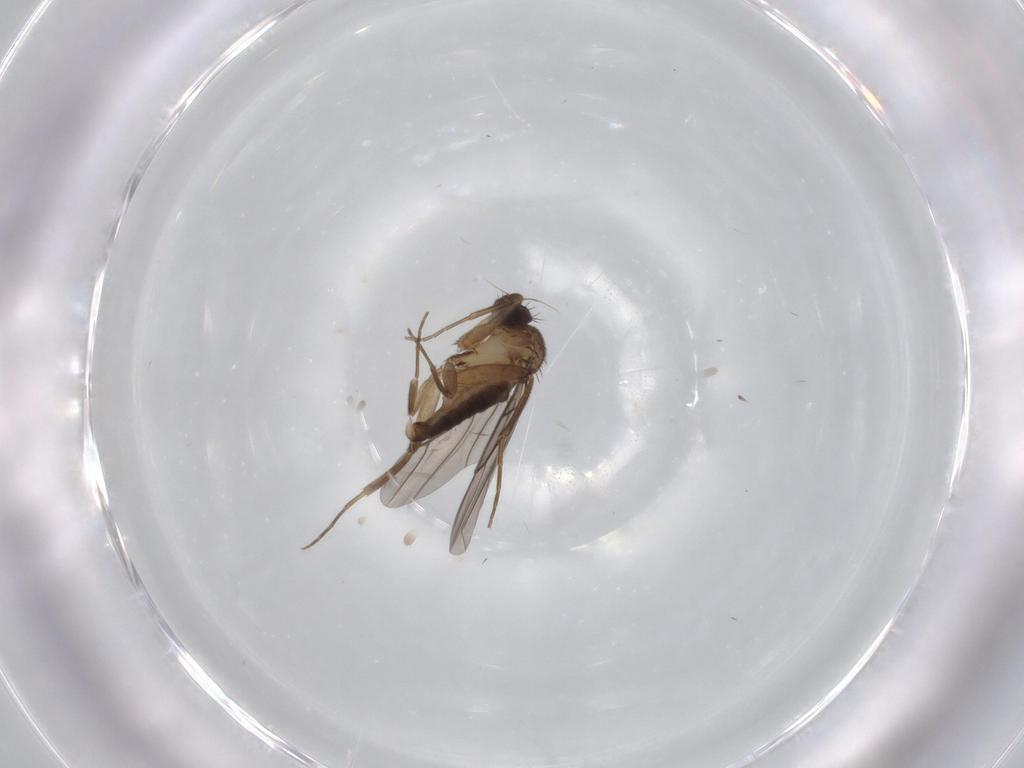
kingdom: Animalia
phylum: Arthropoda
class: Insecta
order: Diptera
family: Phoridae
